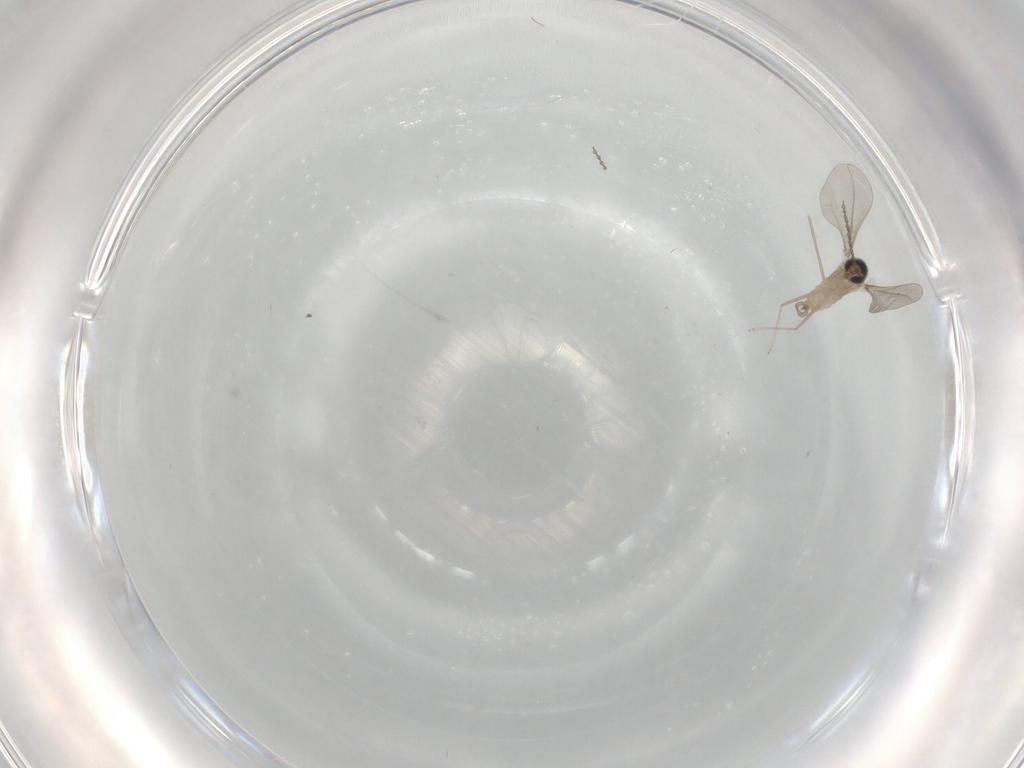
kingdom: Animalia
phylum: Arthropoda
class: Insecta
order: Diptera
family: Cecidomyiidae
